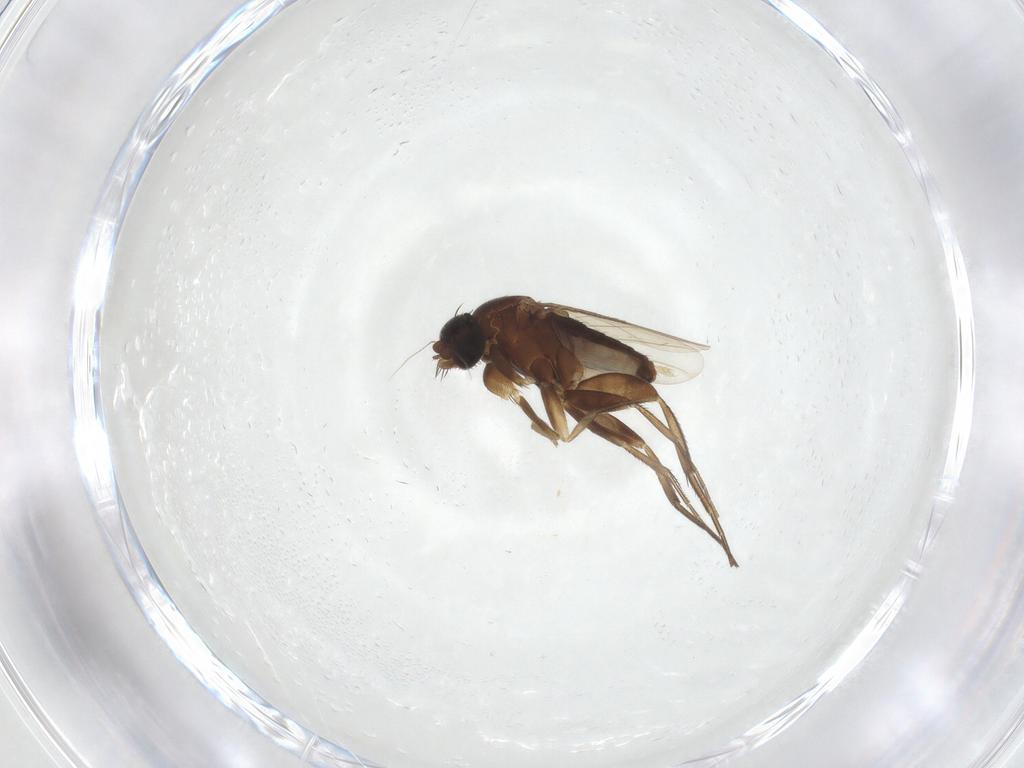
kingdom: Animalia
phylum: Arthropoda
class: Insecta
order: Diptera
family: Phoridae
